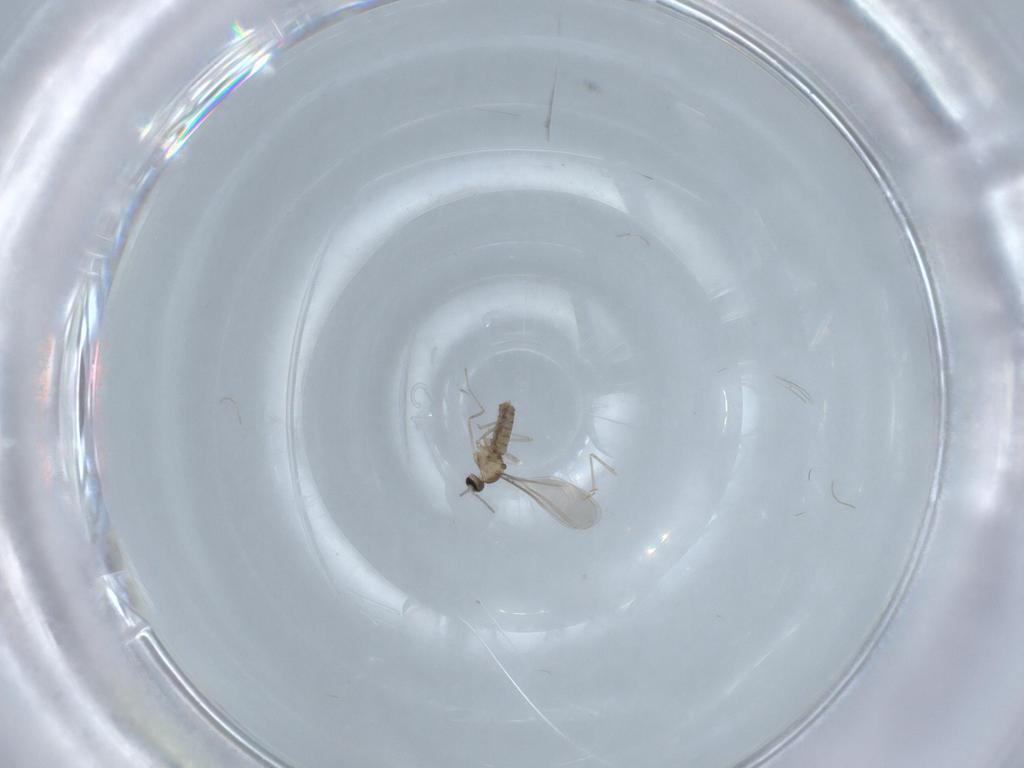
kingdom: Animalia
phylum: Arthropoda
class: Insecta
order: Diptera
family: Cecidomyiidae
